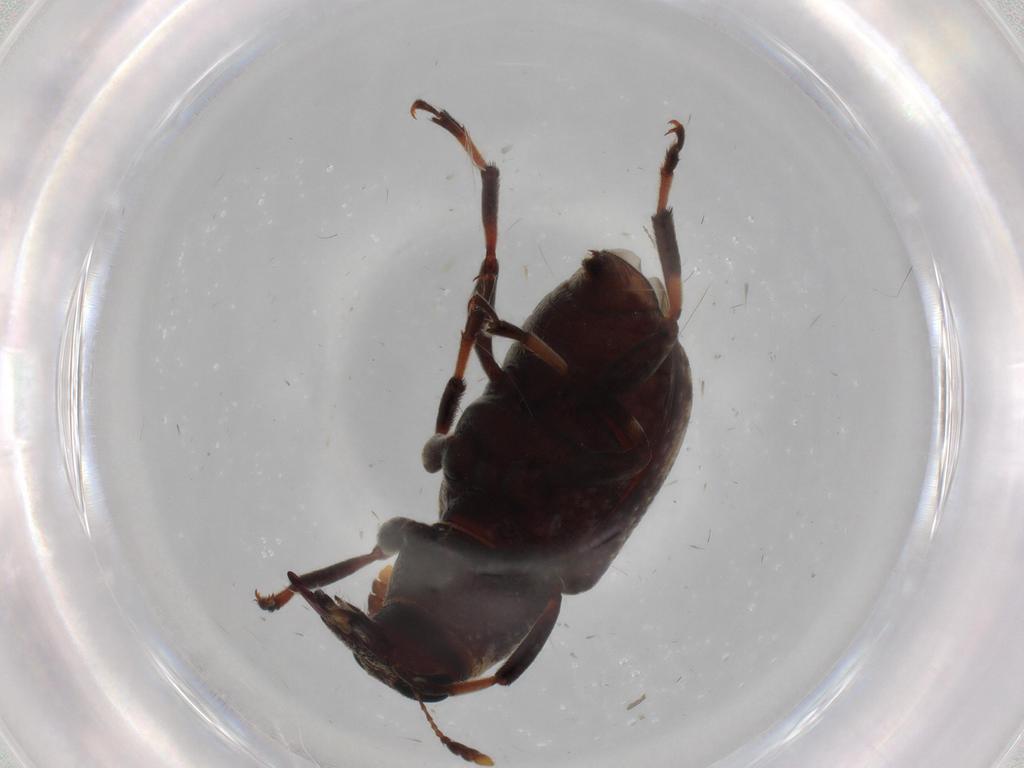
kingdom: Animalia
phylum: Arthropoda
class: Insecta
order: Coleoptera
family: Anthribidae
